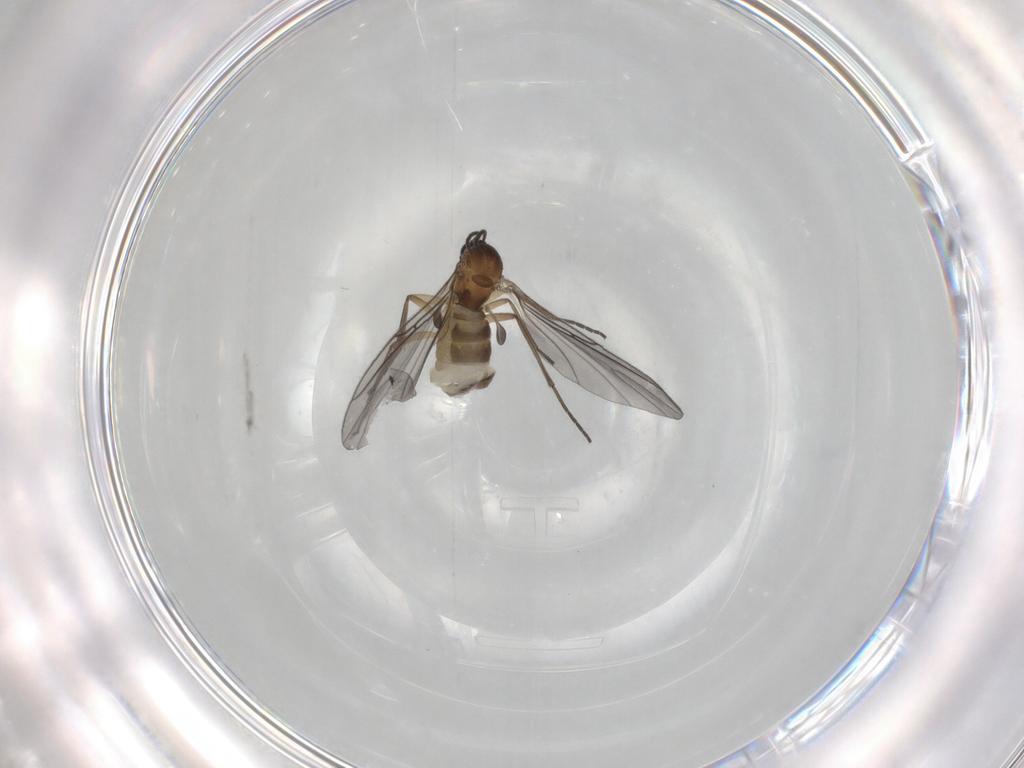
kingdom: Animalia
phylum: Arthropoda
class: Insecta
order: Diptera
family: Sciaridae
